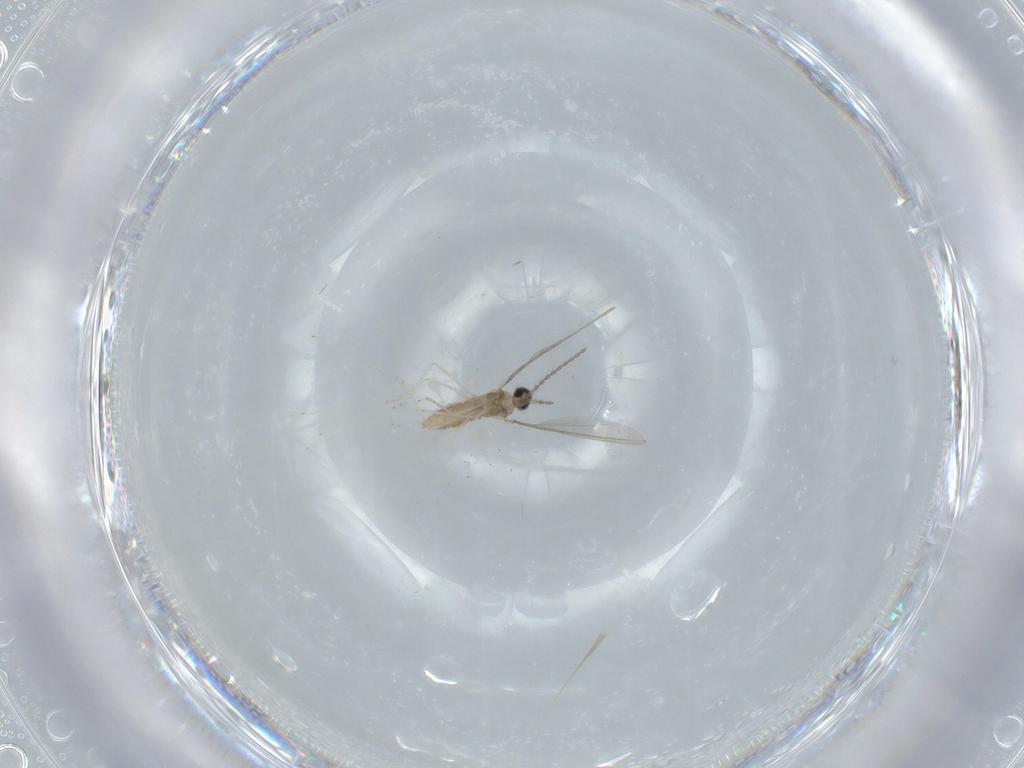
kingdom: Animalia
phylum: Arthropoda
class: Insecta
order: Diptera
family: Cecidomyiidae
